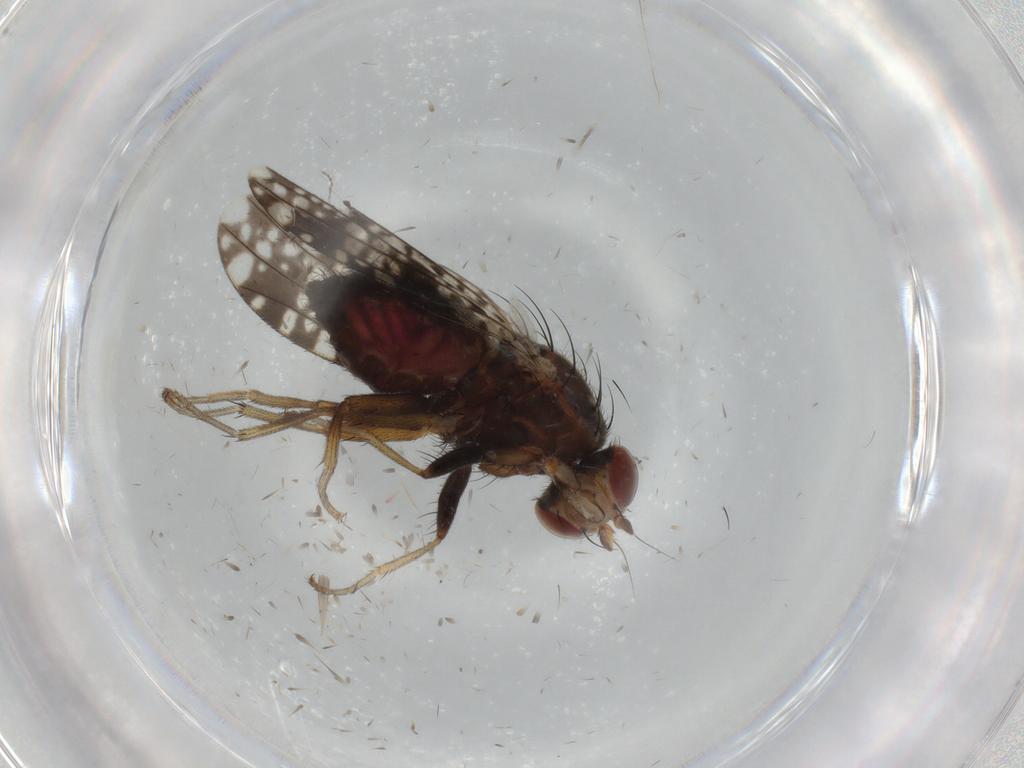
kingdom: Animalia
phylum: Arthropoda
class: Insecta
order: Diptera
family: Tephritidae
